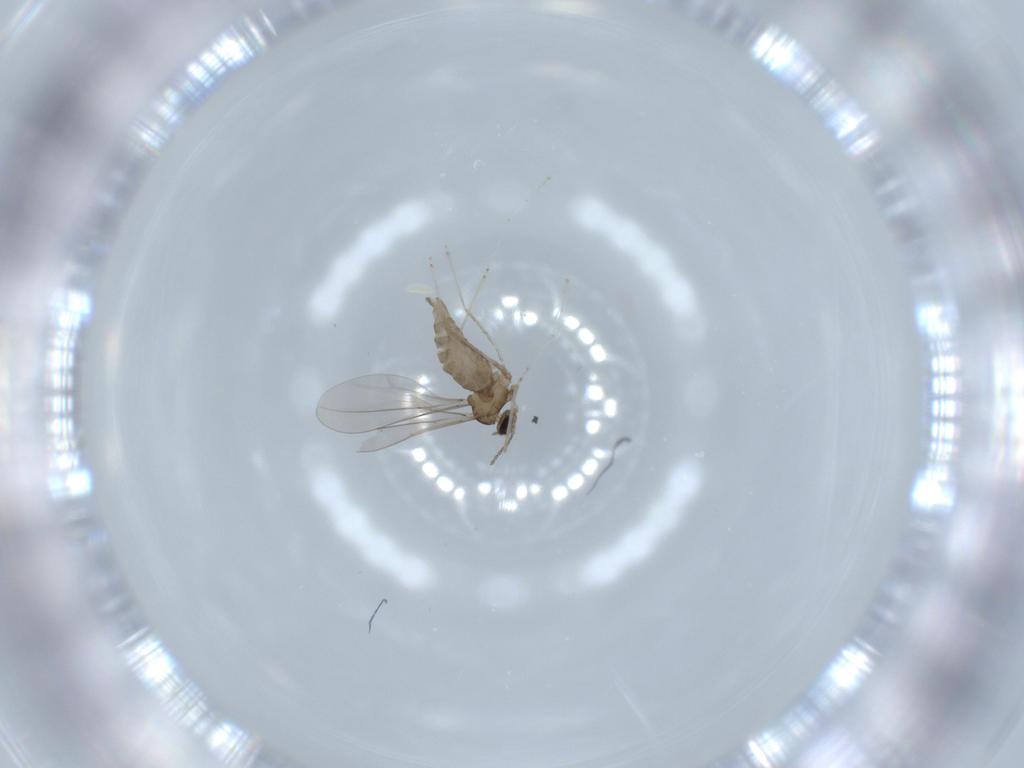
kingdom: Animalia
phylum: Arthropoda
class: Insecta
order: Diptera
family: Cecidomyiidae
